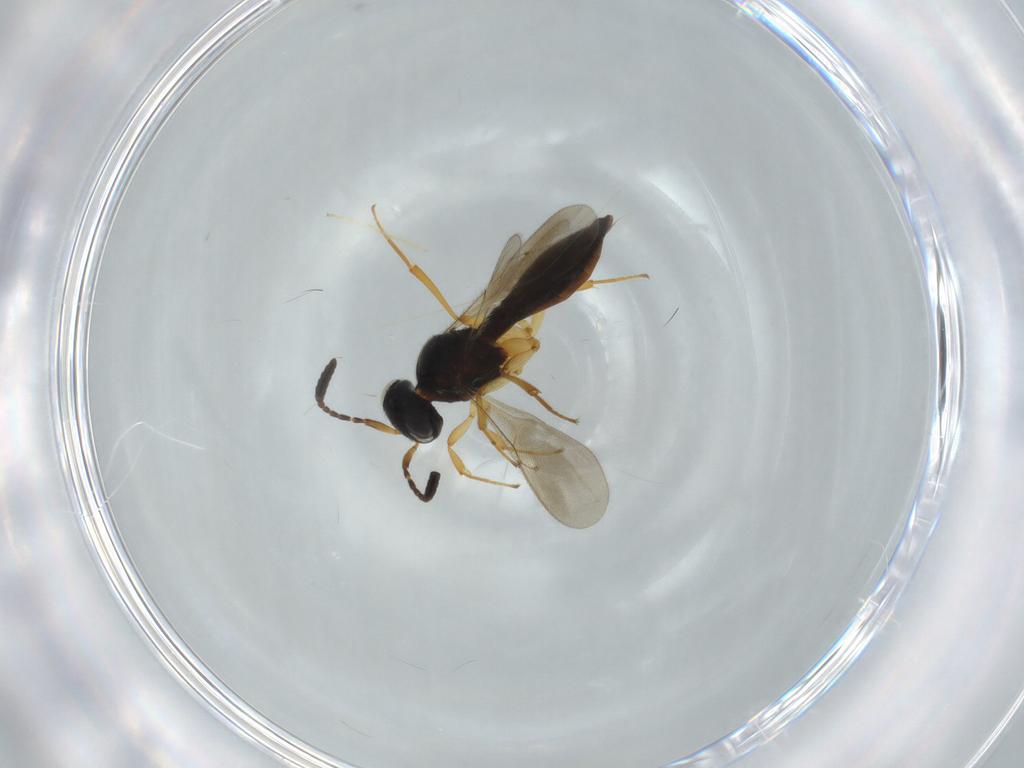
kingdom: Animalia
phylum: Arthropoda
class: Insecta
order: Hymenoptera
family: Scelionidae
